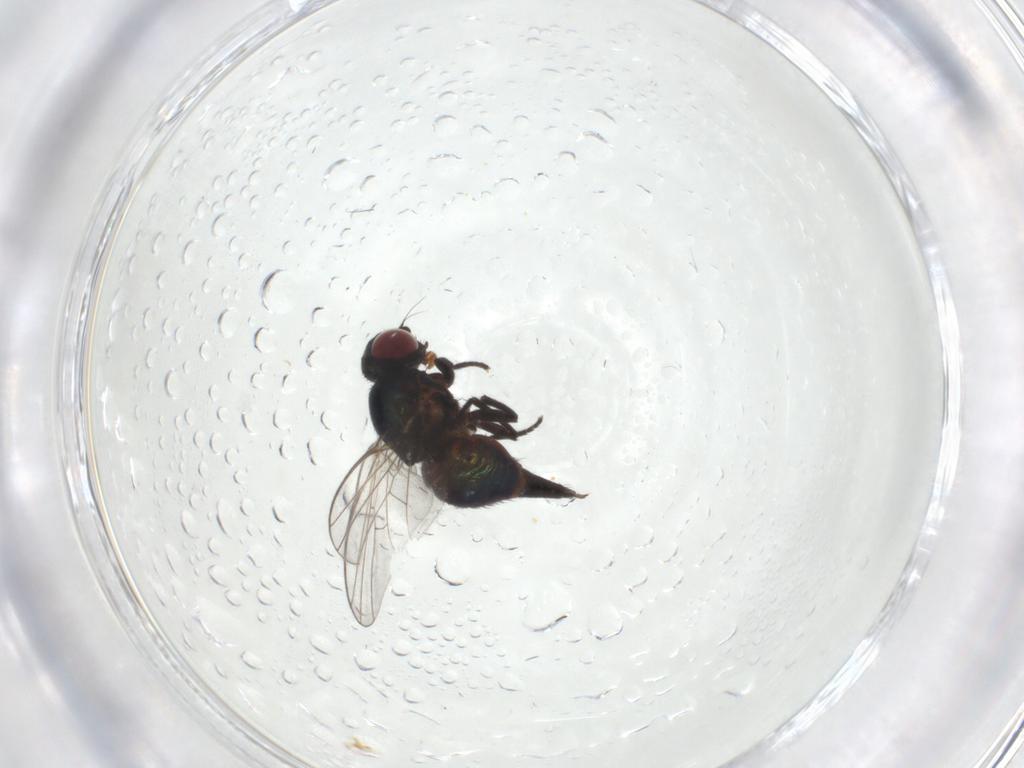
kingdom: Animalia
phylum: Arthropoda
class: Insecta
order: Diptera
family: Agromyzidae
